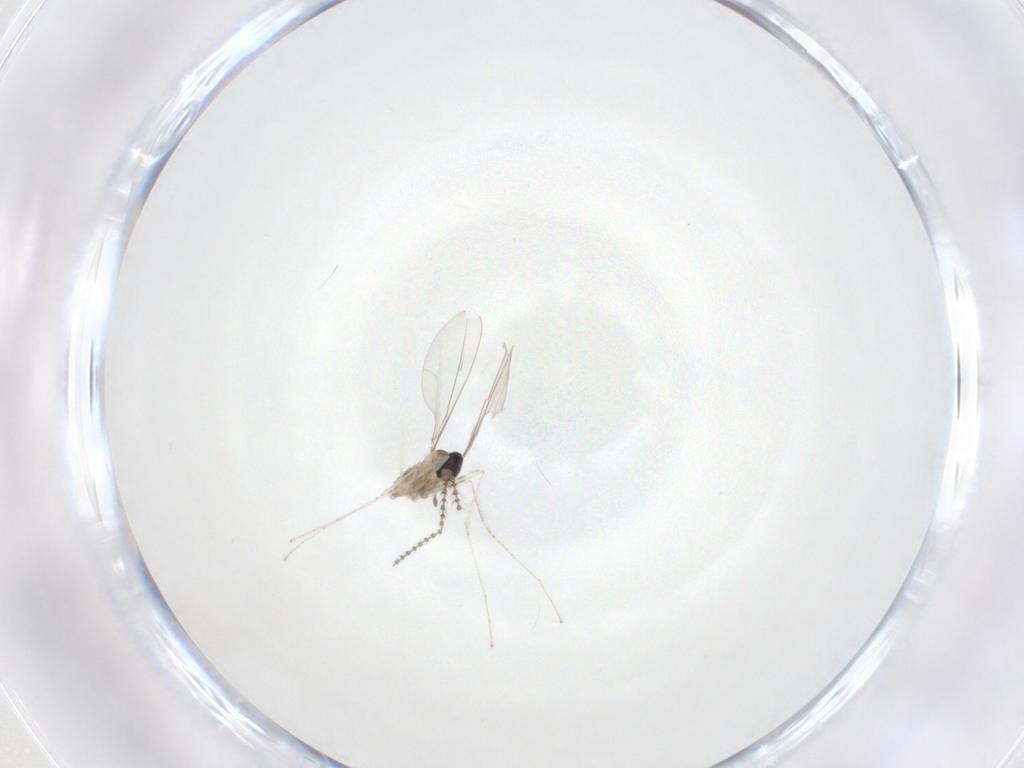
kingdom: Animalia
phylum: Arthropoda
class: Insecta
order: Diptera
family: Cecidomyiidae
